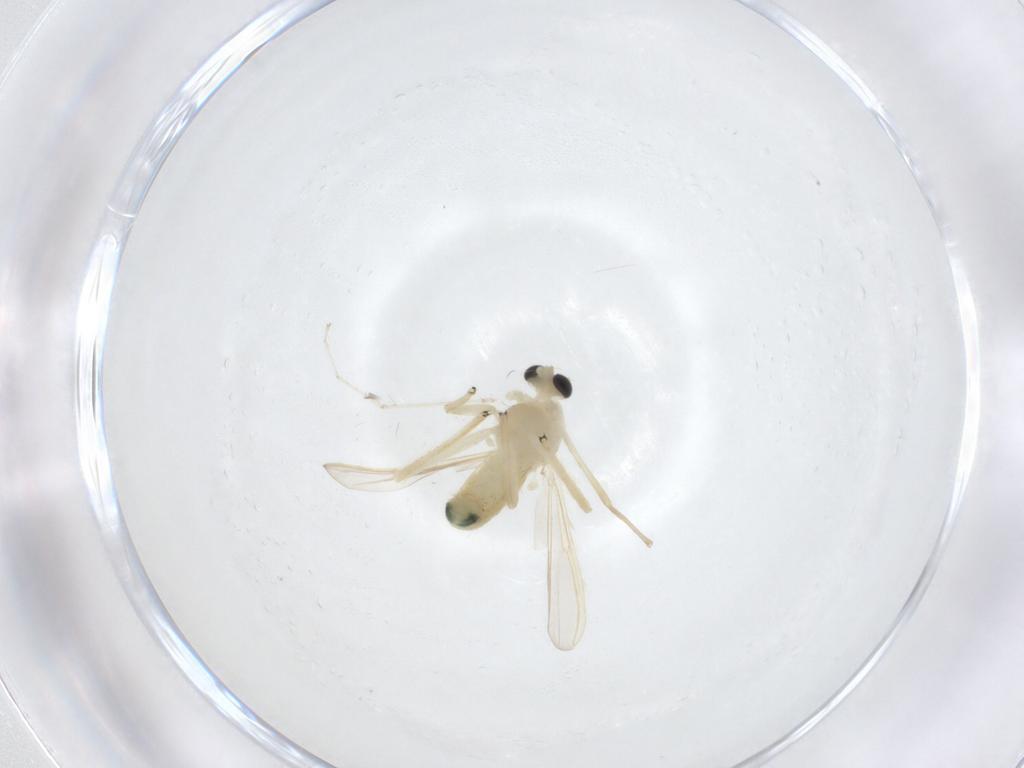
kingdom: Animalia
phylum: Arthropoda
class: Insecta
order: Diptera
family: Chironomidae
